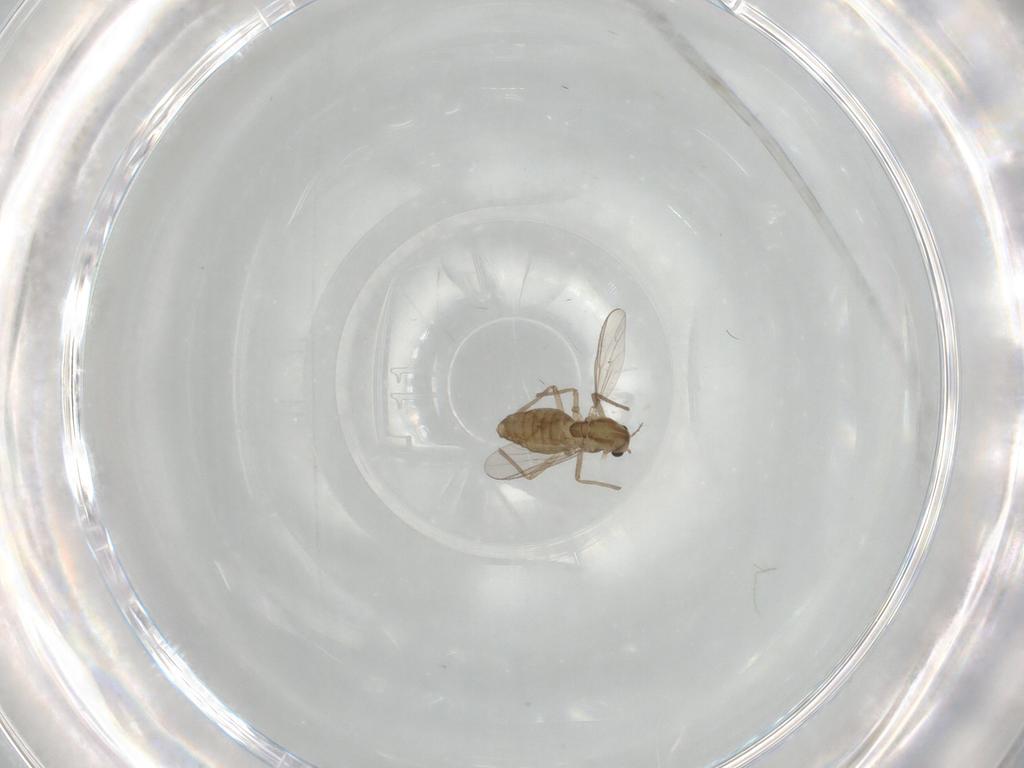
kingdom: Animalia
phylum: Arthropoda
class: Insecta
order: Diptera
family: Chironomidae
